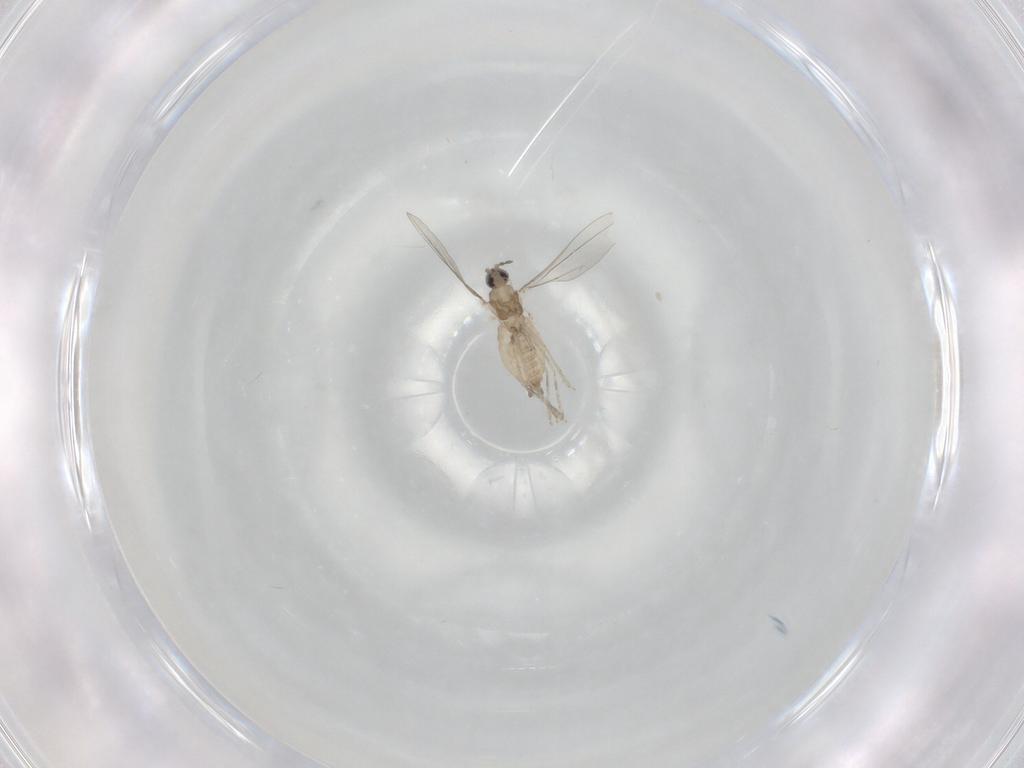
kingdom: Animalia
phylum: Arthropoda
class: Insecta
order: Diptera
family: Cecidomyiidae
